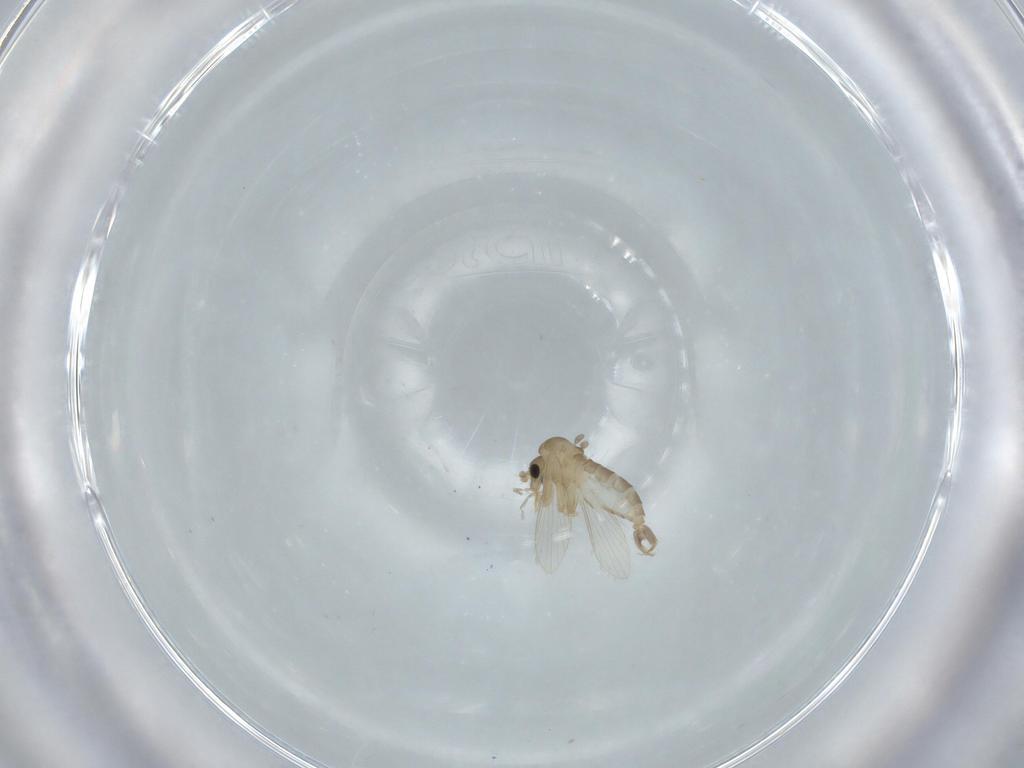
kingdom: Animalia
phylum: Arthropoda
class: Insecta
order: Diptera
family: Psychodidae
